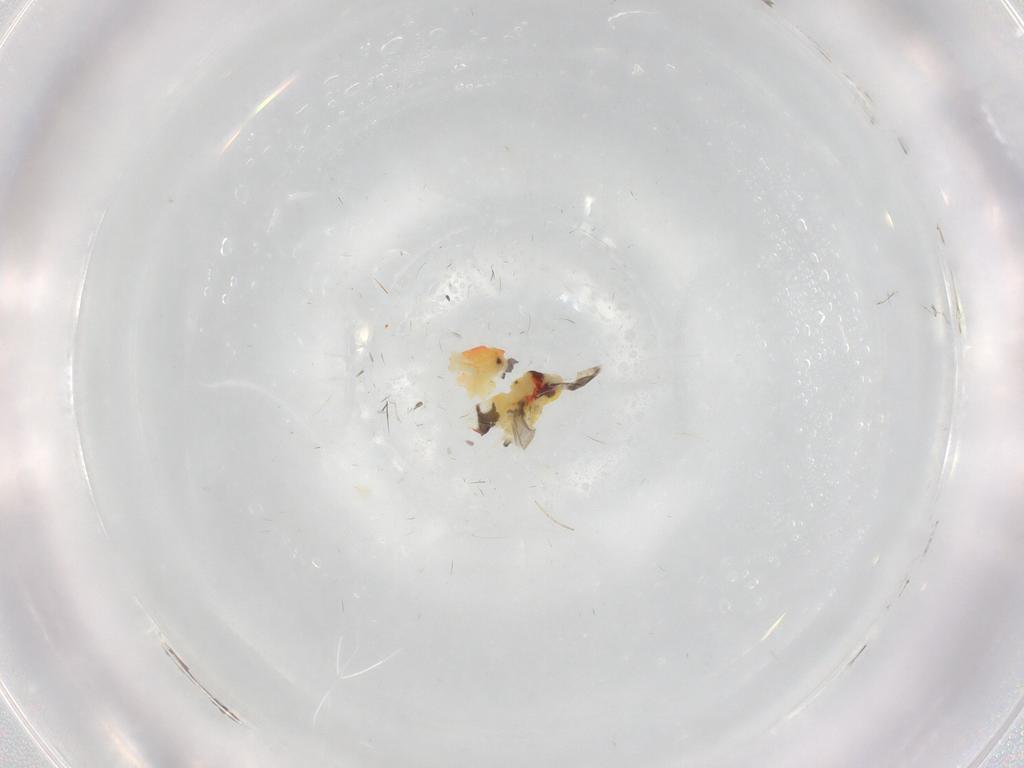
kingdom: Animalia
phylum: Arthropoda
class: Insecta
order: Hemiptera
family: Aleyrodidae
